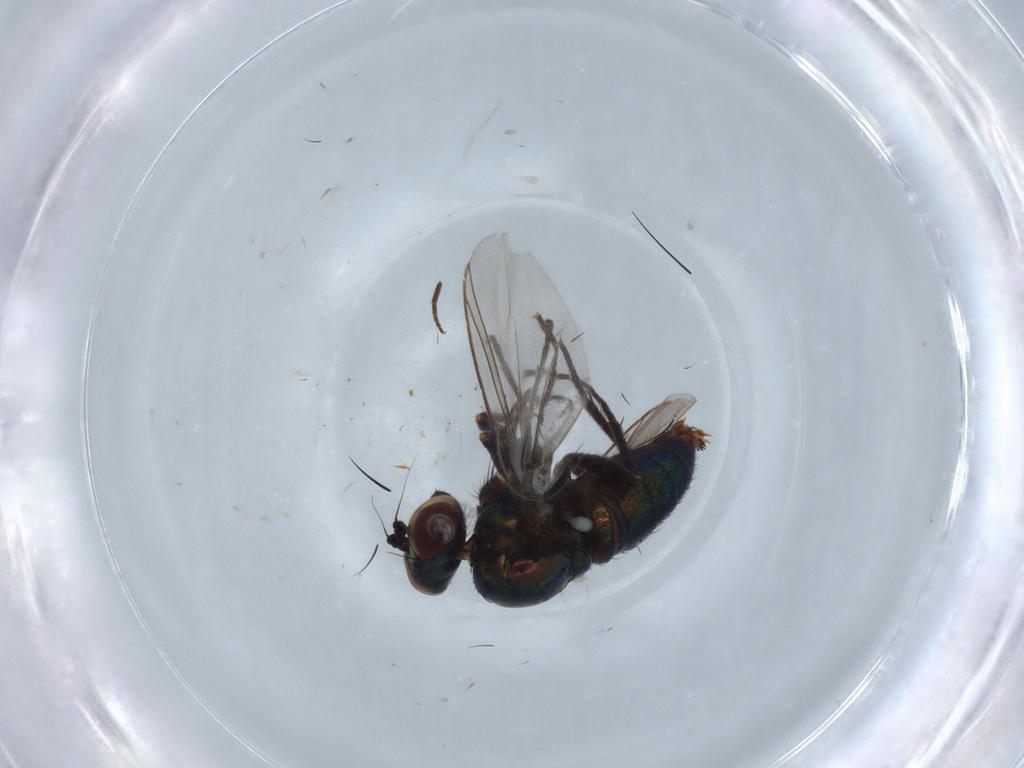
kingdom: Animalia
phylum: Arthropoda
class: Insecta
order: Diptera
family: Dolichopodidae
